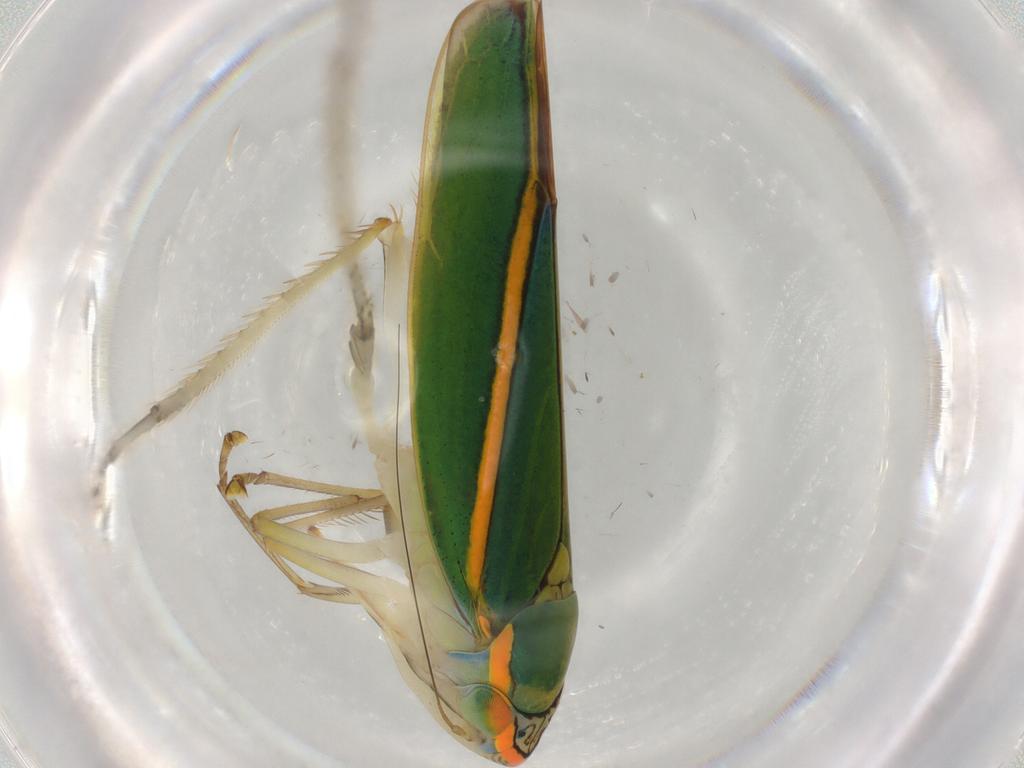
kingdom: Animalia
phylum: Arthropoda
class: Insecta
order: Hemiptera
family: Cicadellidae
